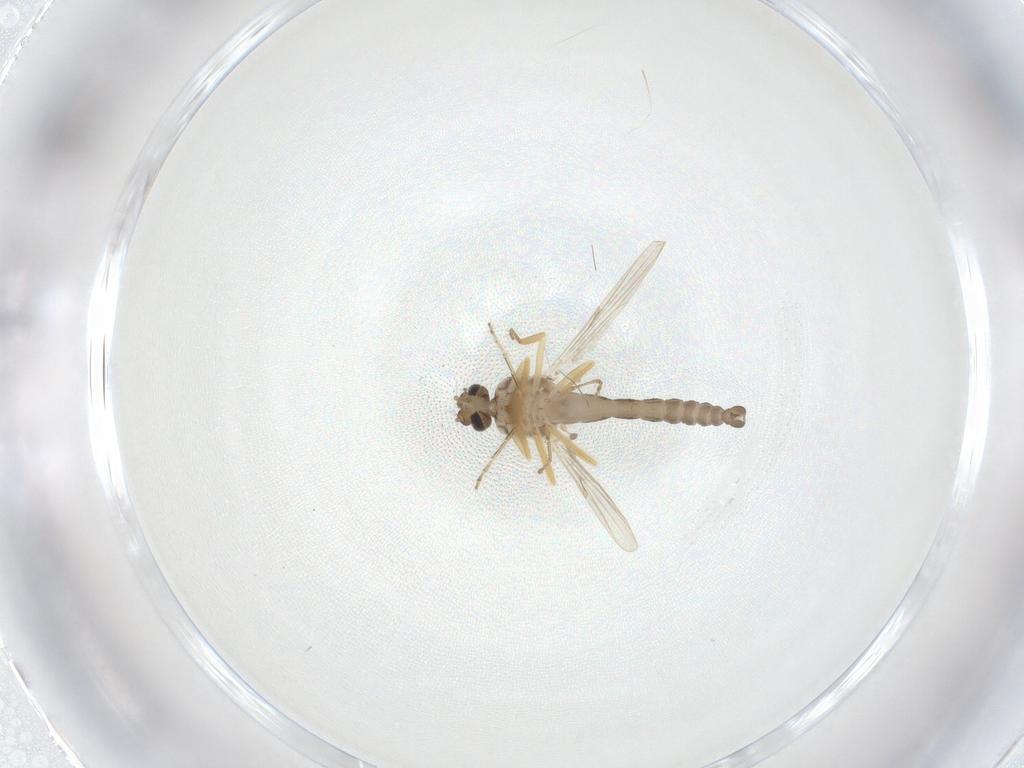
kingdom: Animalia
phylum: Arthropoda
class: Insecta
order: Diptera
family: Ceratopogonidae
